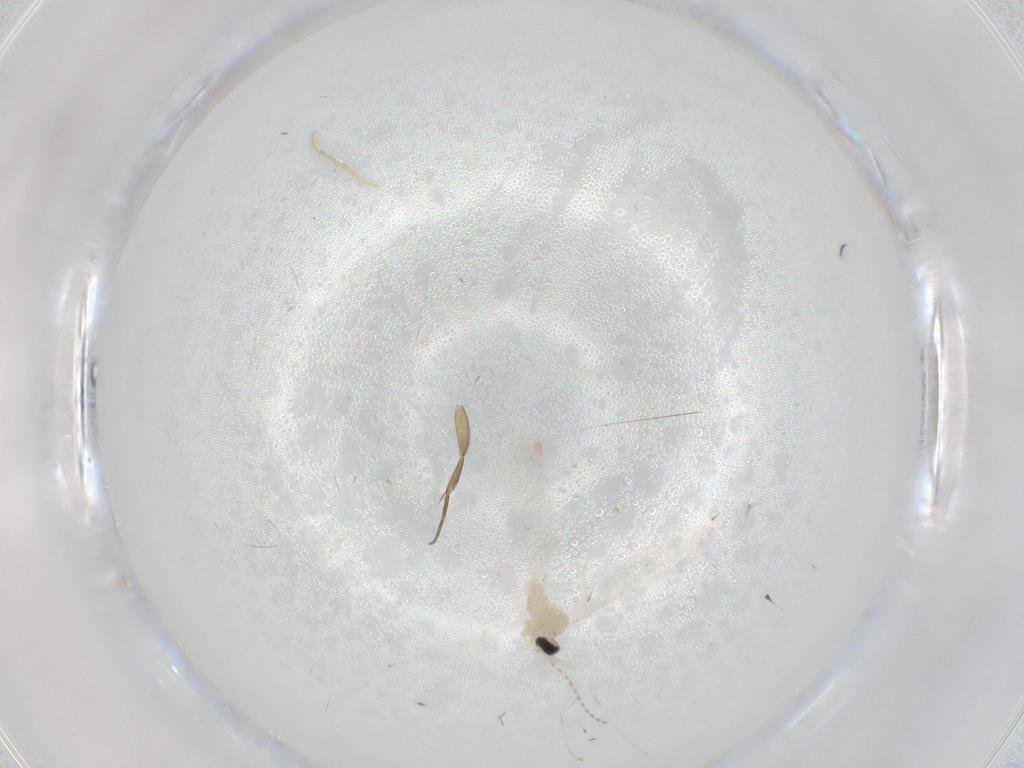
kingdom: Animalia
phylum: Arthropoda
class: Insecta
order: Diptera
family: Cecidomyiidae
